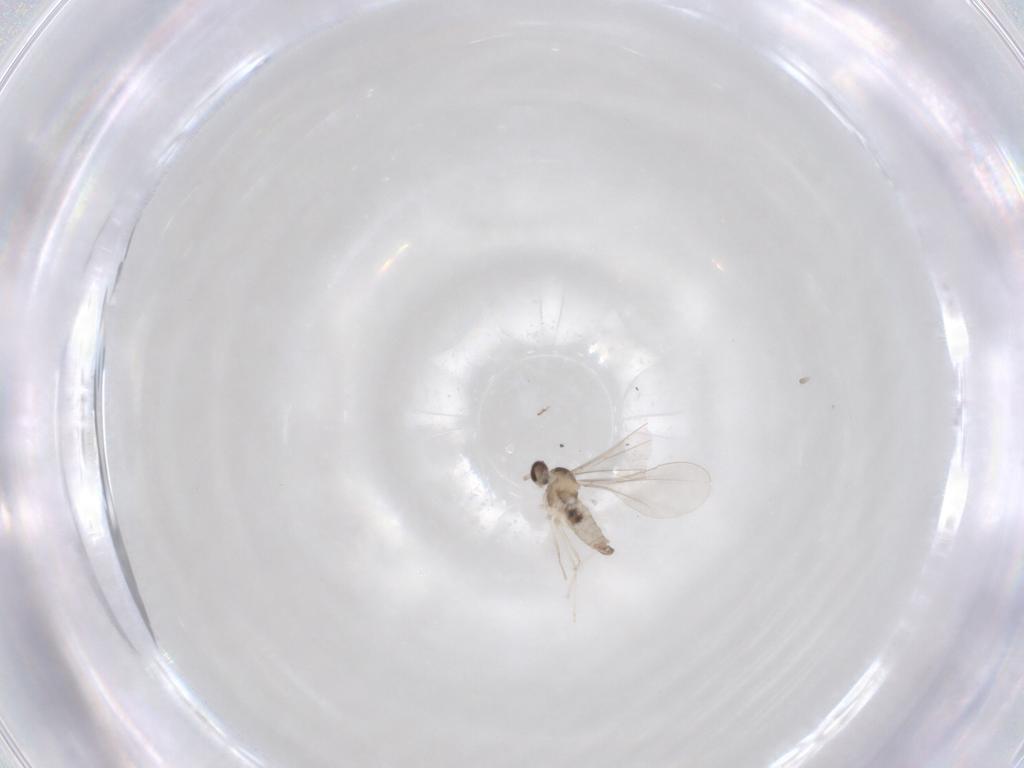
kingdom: Animalia
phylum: Arthropoda
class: Insecta
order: Diptera
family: Cecidomyiidae
